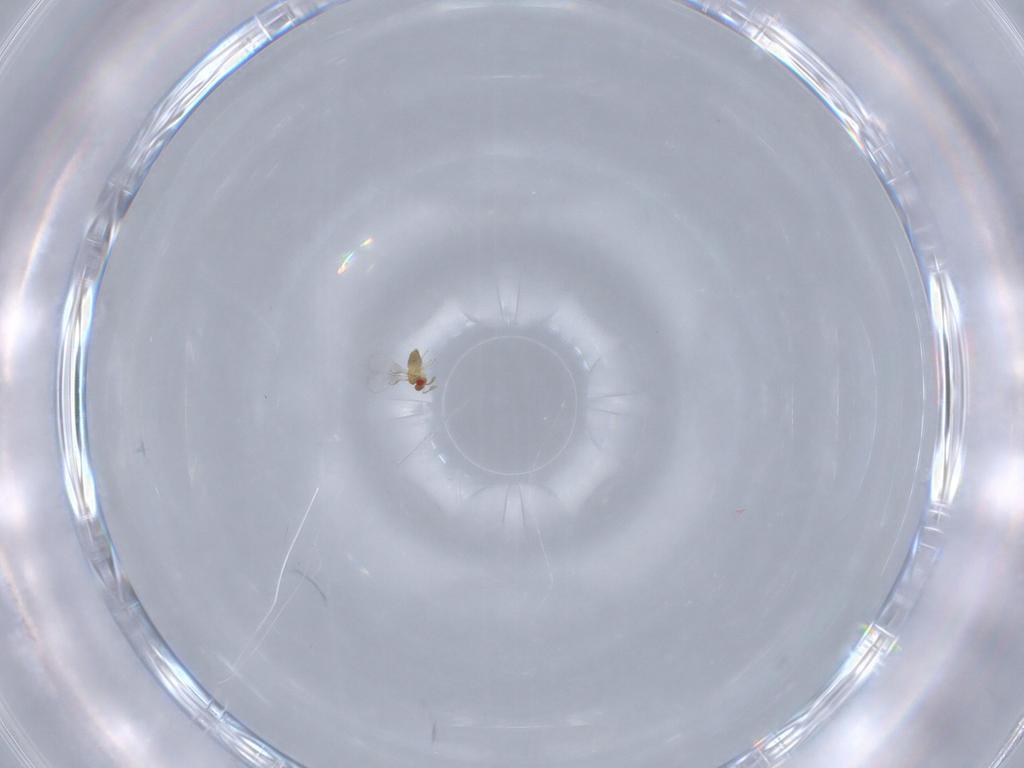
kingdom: Animalia
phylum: Arthropoda
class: Insecta
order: Hymenoptera
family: Trichogrammatidae
